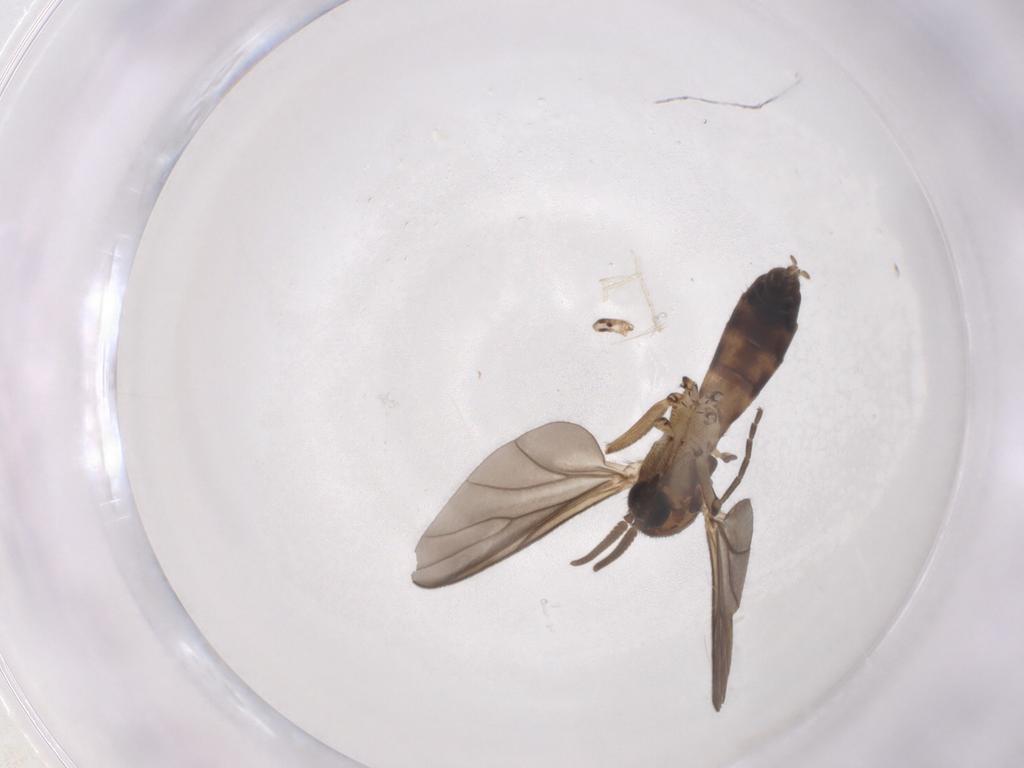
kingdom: Animalia
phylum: Arthropoda
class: Insecta
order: Diptera
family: Mycetophilidae
